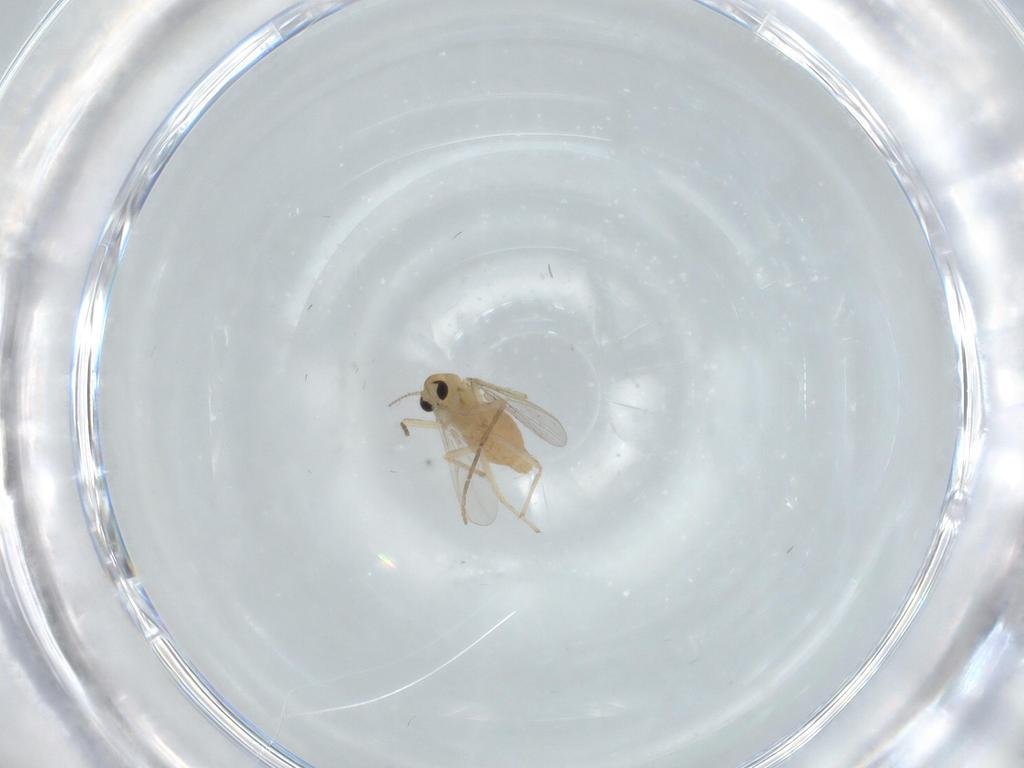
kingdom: Animalia
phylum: Arthropoda
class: Insecta
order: Diptera
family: Chironomidae
